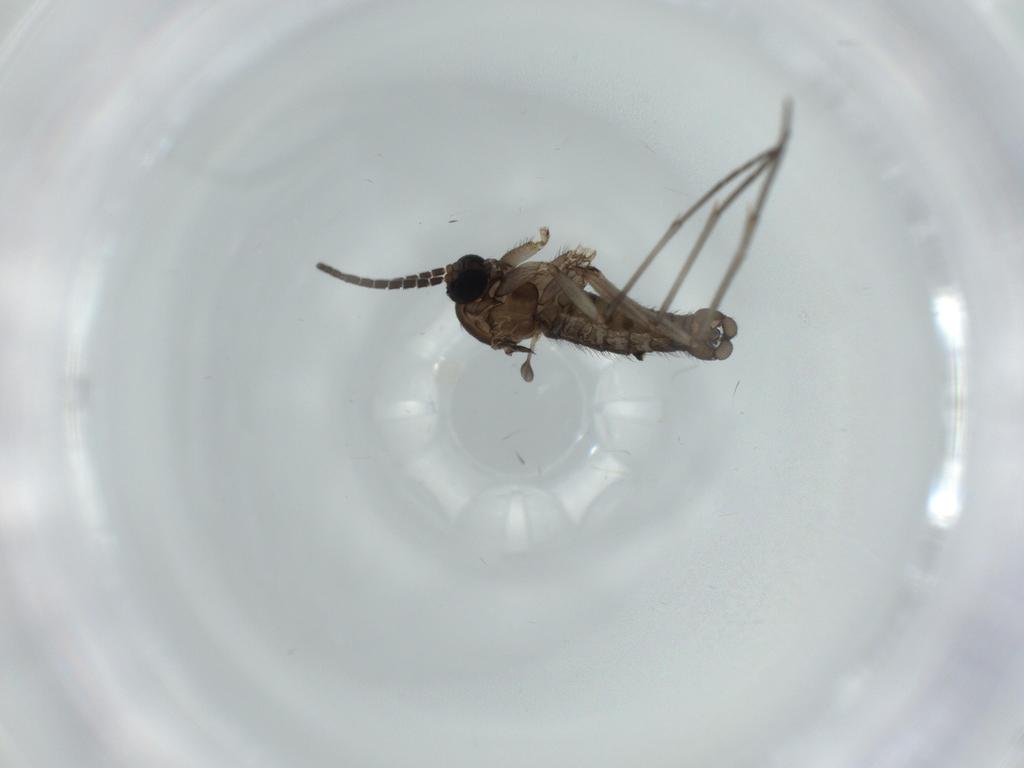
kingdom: Animalia
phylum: Arthropoda
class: Insecta
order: Diptera
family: Sciaridae
